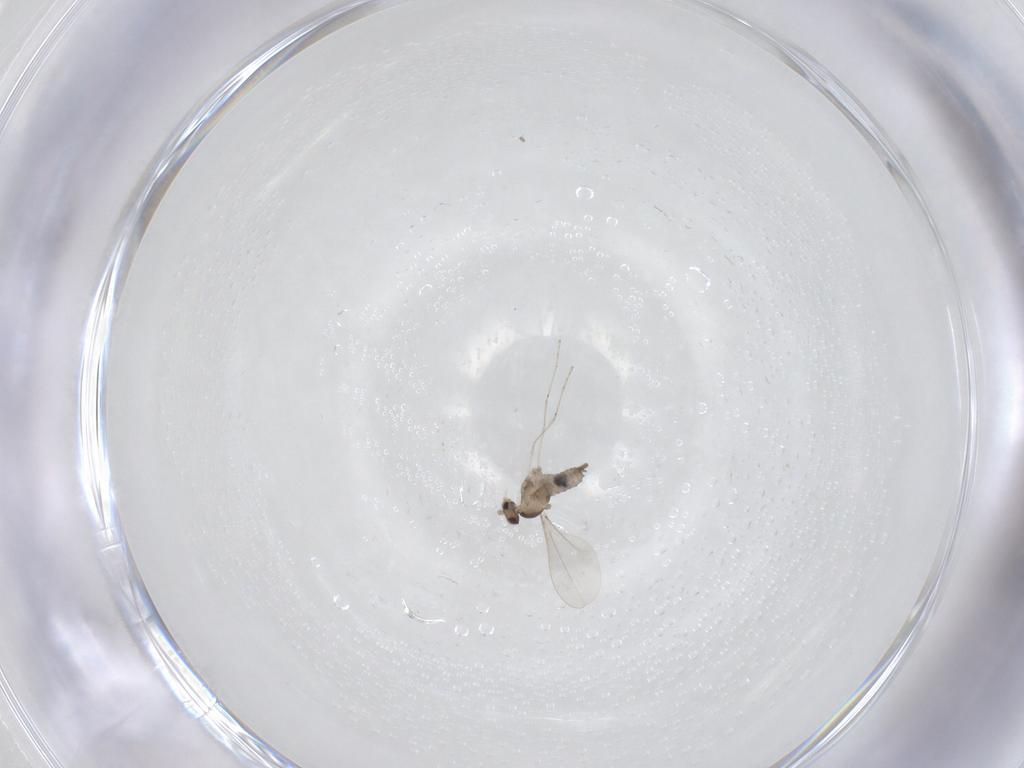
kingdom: Animalia
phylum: Arthropoda
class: Insecta
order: Diptera
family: Cecidomyiidae
